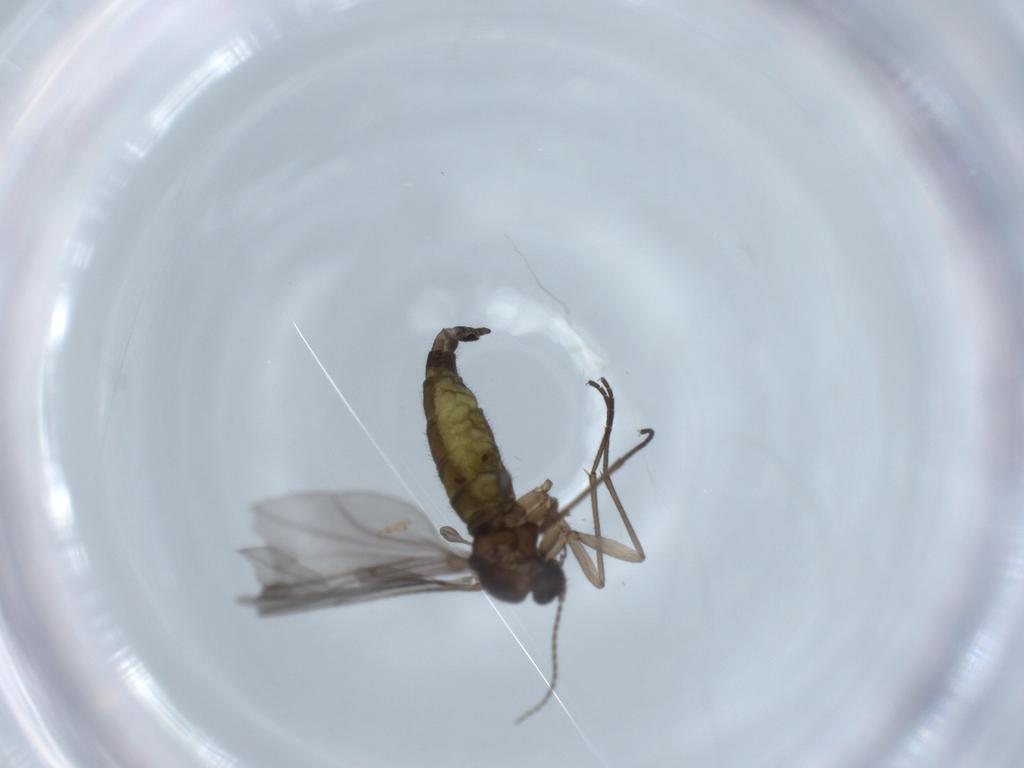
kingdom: Animalia
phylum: Arthropoda
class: Insecta
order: Diptera
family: Sciaridae
